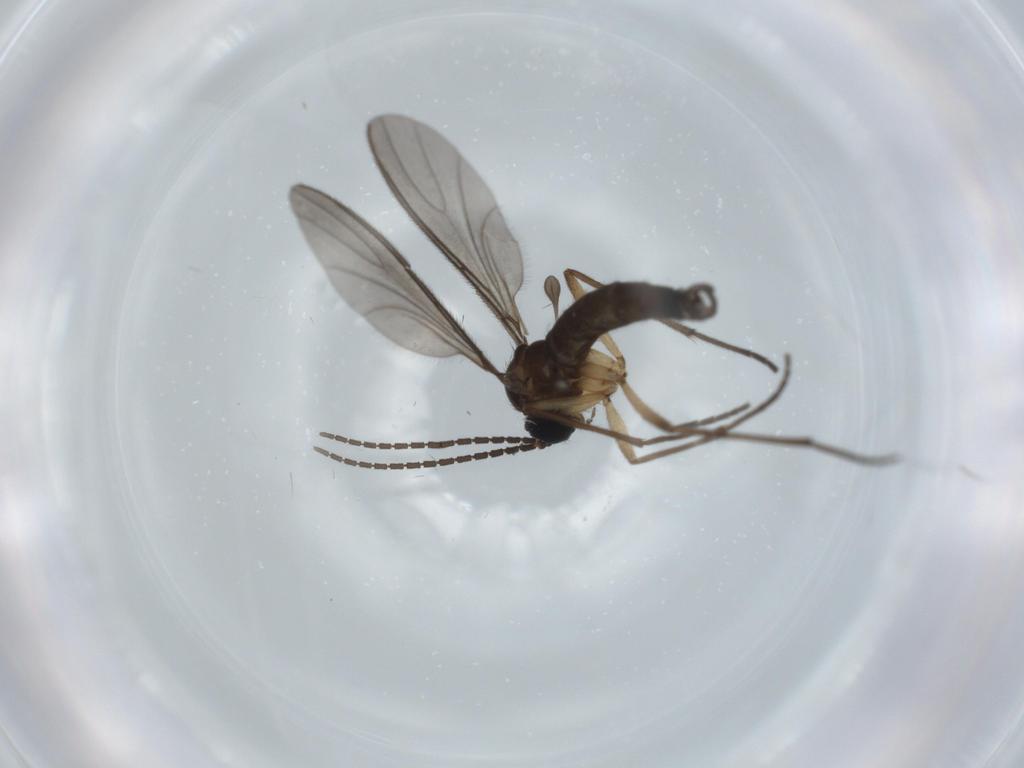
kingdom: Animalia
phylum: Arthropoda
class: Insecta
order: Diptera
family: Sciaridae
